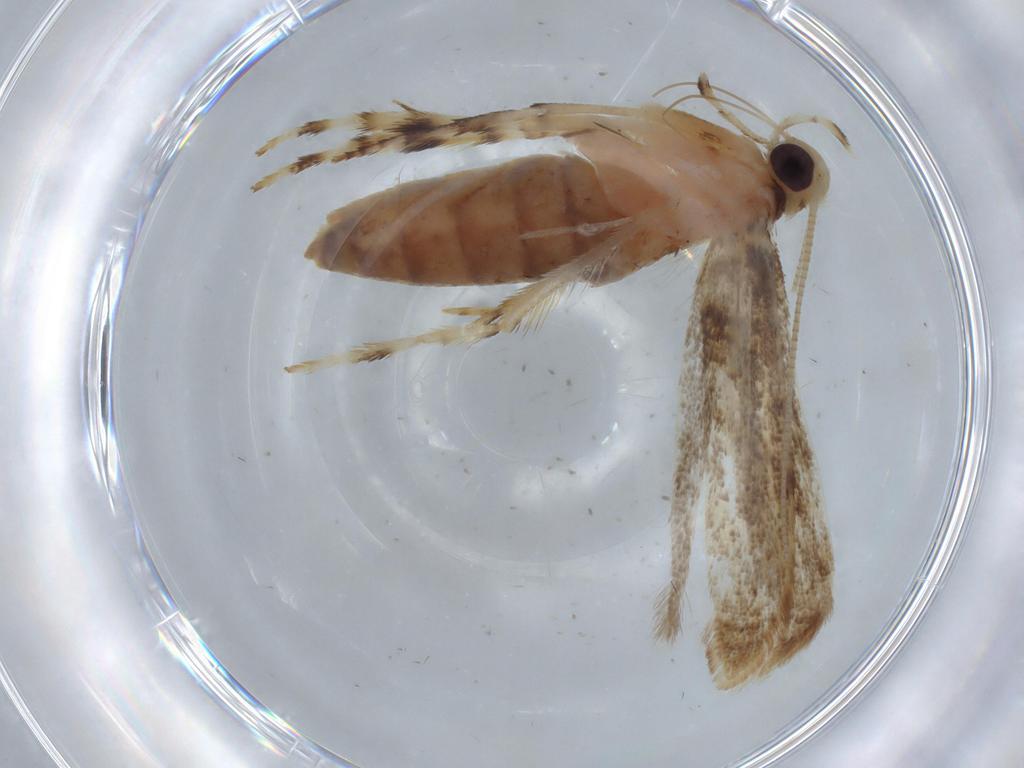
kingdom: Animalia
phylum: Arthropoda
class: Insecta
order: Lepidoptera
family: Gracillariidae
